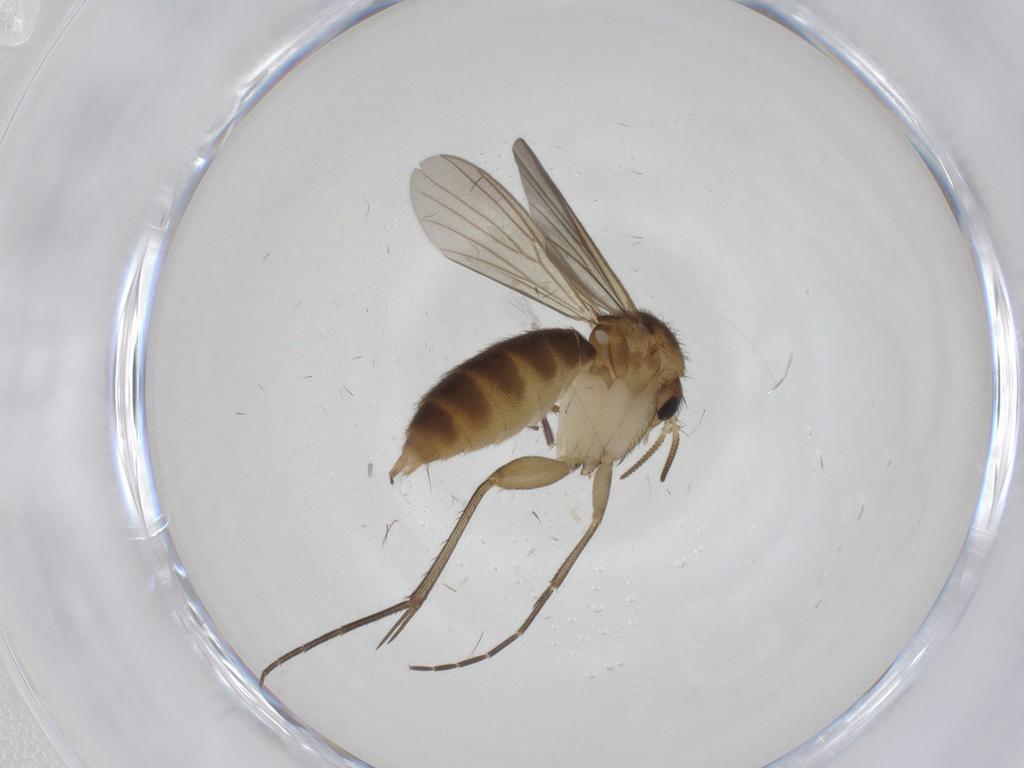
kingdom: Animalia
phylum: Arthropoda
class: Insecta
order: Diptera
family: Mycetophilidae
